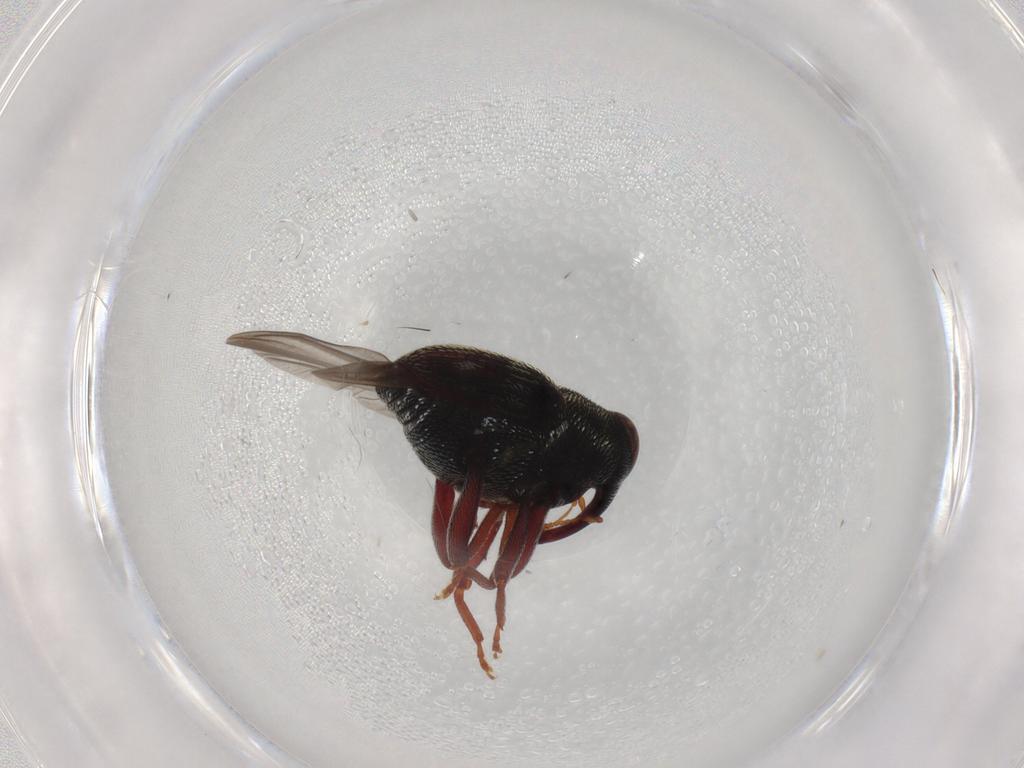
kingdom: Animalia
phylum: Arthropoda
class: Insecta
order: Coleoptera
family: Curculionidae
